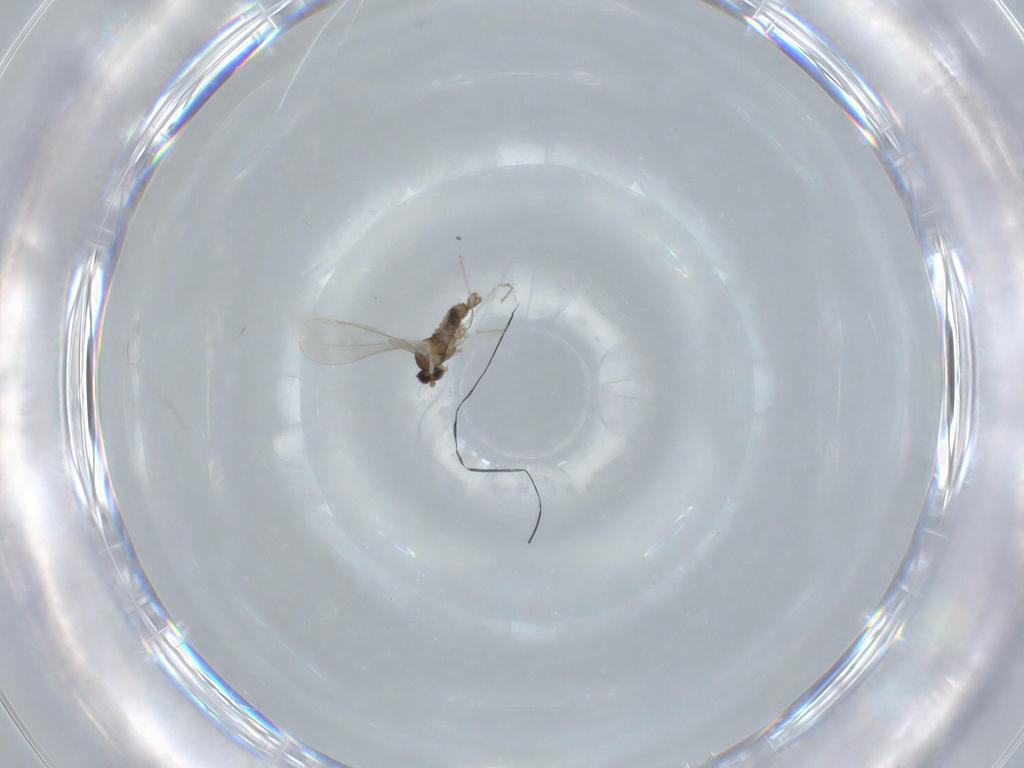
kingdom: Animalia
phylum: Arthropoda
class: Insecta
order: Diptera
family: Cecidomyiidae
